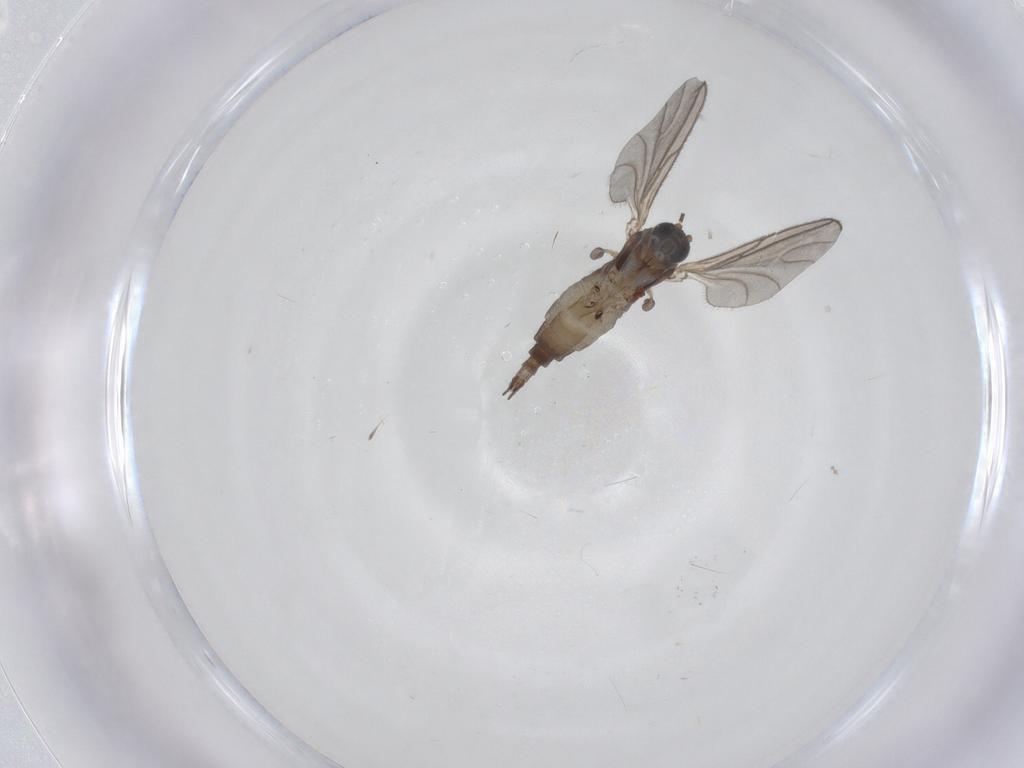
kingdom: Animalia
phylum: Arthropoda
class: Insecta
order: Diptera
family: Sciaridae
